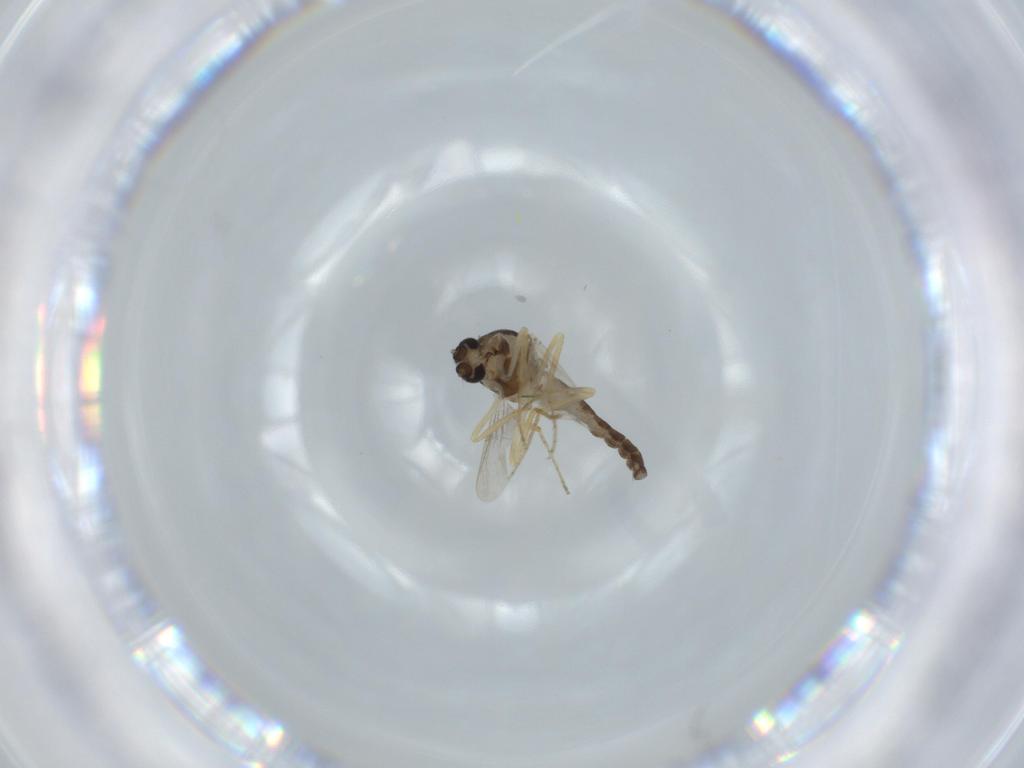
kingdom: Animalia
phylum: Arthropoda
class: Insecta
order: Diptera
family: Ceratopogonidae
